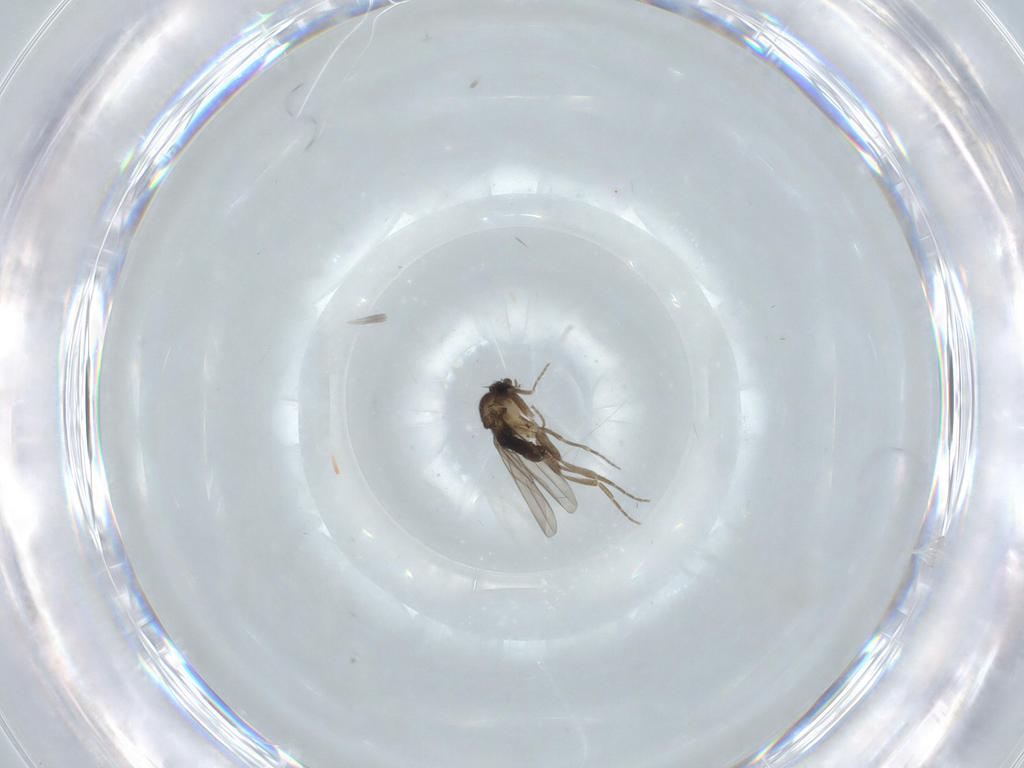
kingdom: Animalia
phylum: Arthropoda
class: Insecta
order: Diptera
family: Sciaridae
